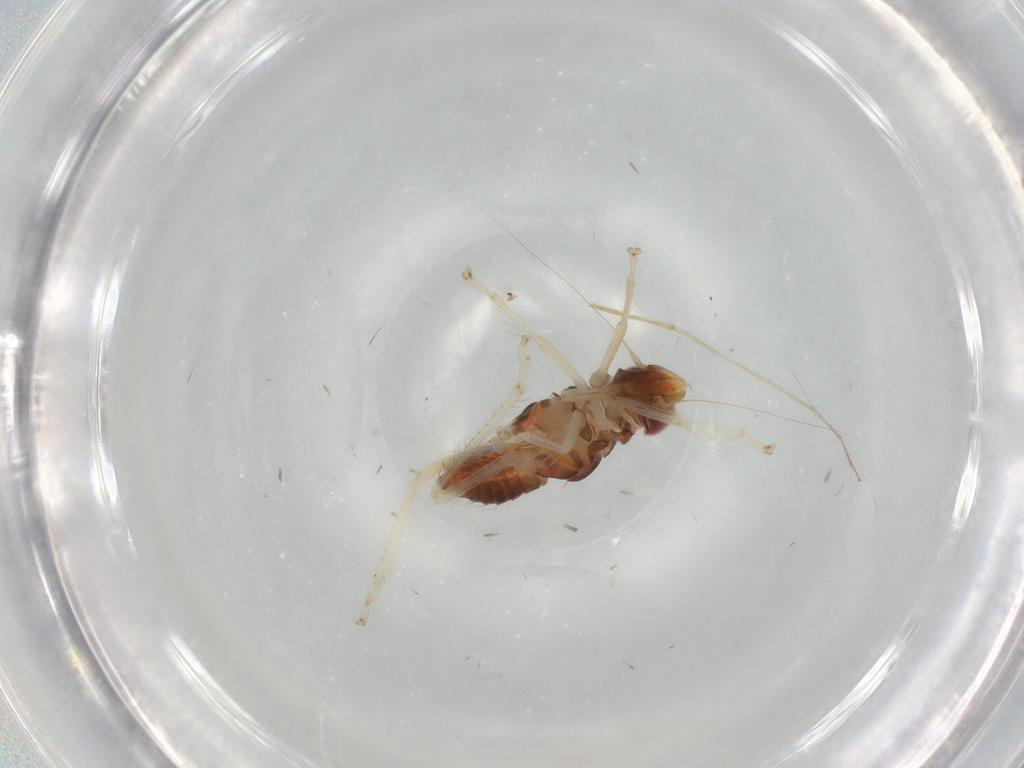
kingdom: Animalia
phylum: Arthropoda
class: Insecta
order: Hemiptera
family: Cicadellidae
